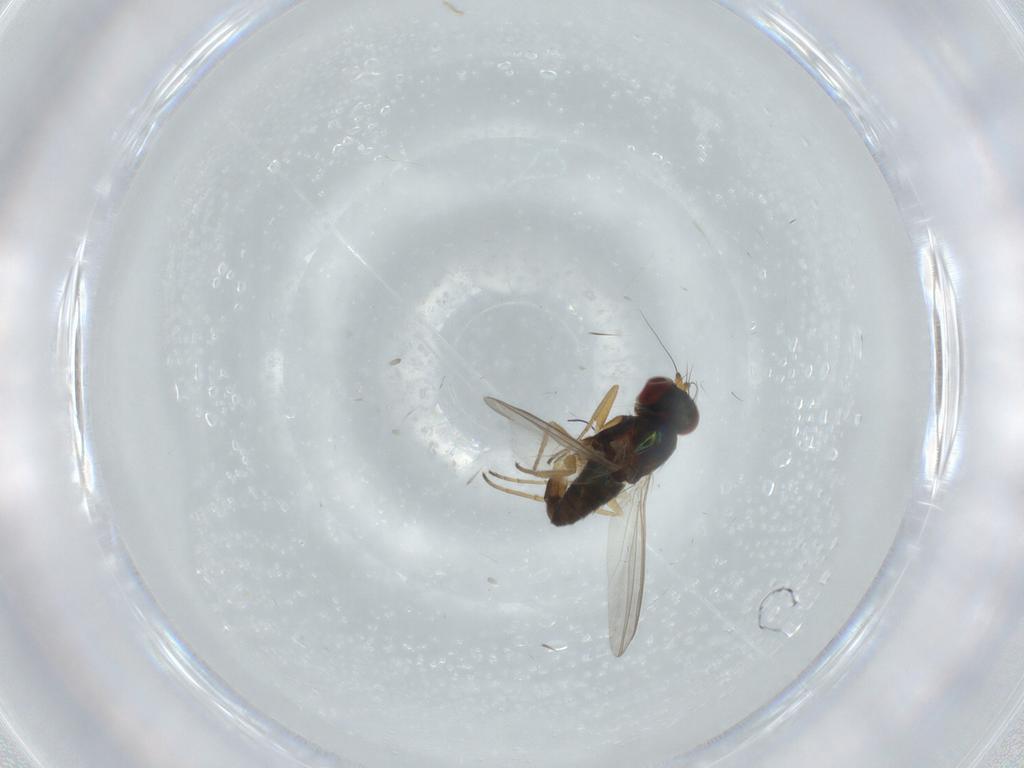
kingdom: Animalia
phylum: Arthropoda
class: Insecta
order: Diptera
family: Dolichopodidae
